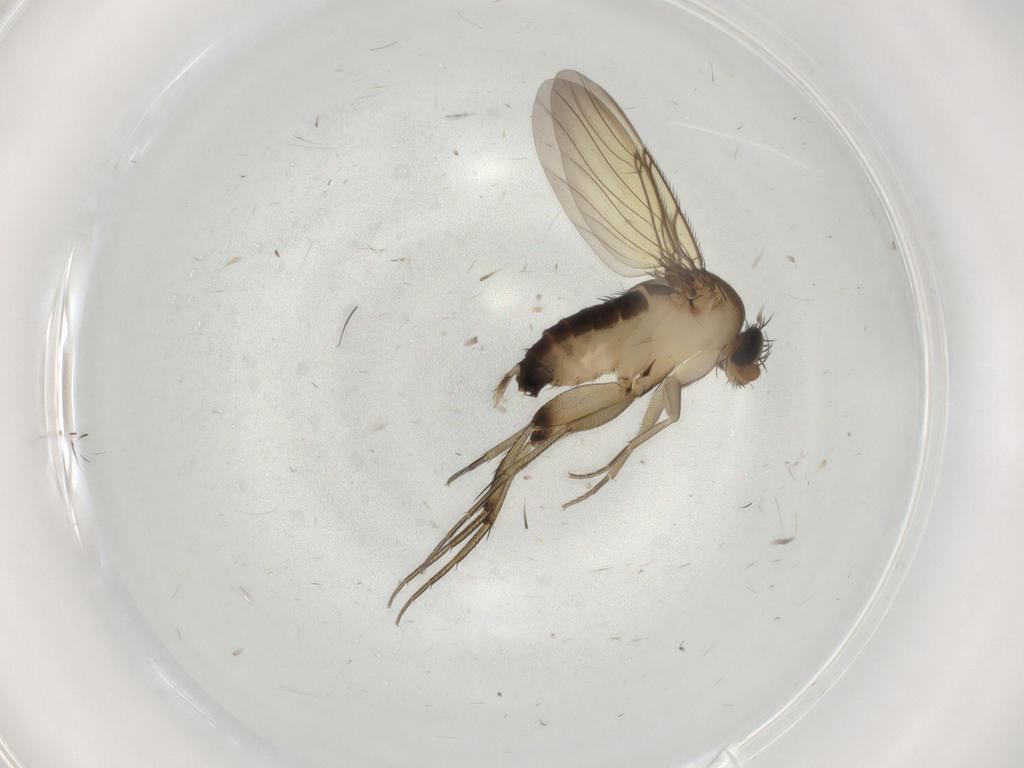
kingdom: Animalia
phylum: Arthropoda
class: Insecta
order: Diptera
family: Phoridae
